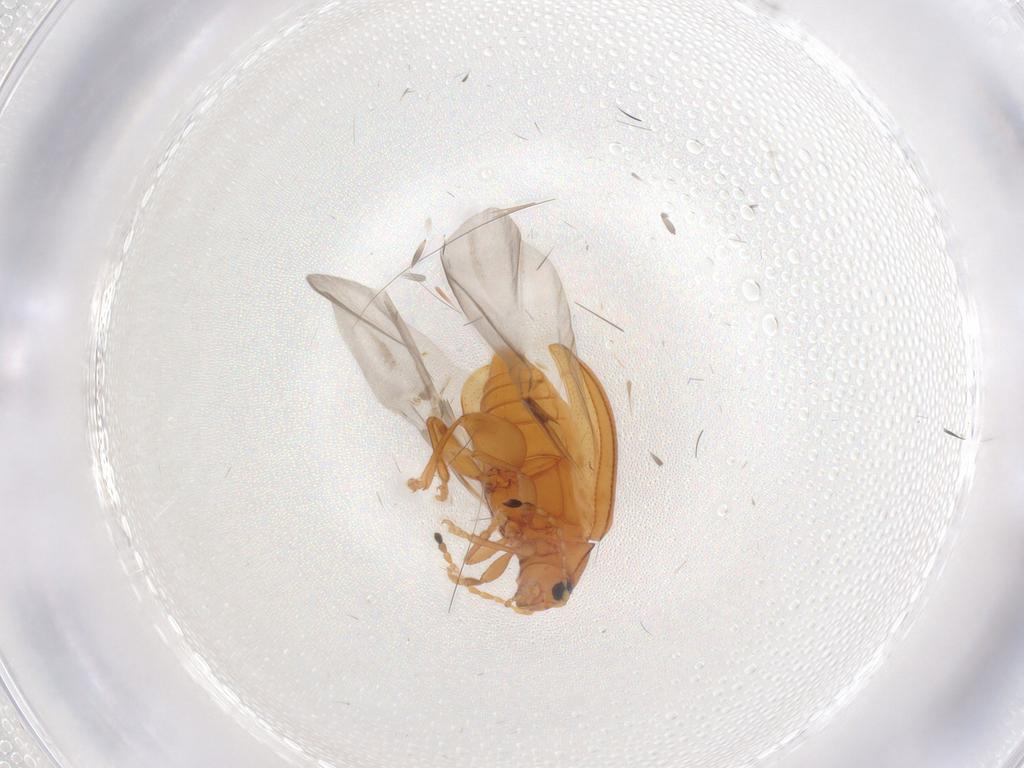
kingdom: Animalia
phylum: Arthropoda
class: Insecta
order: Coleoptera
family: Chrysomelidae
